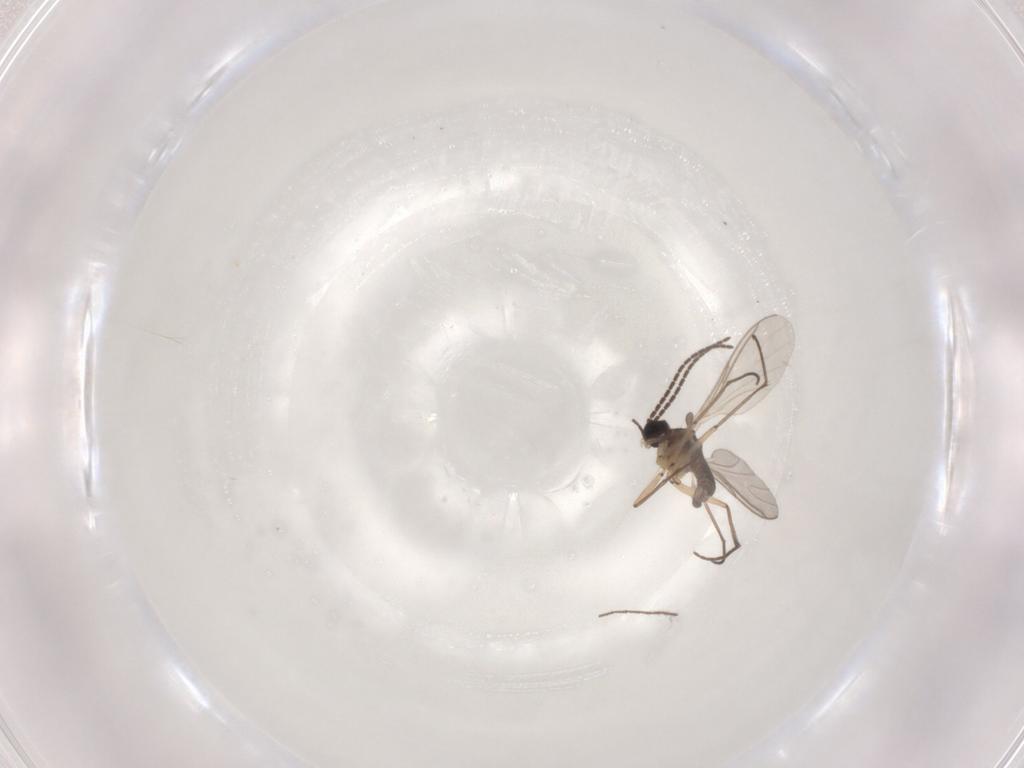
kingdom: Animalia
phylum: Arthropoda
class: Insecta
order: Diptera
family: Sciaridae
